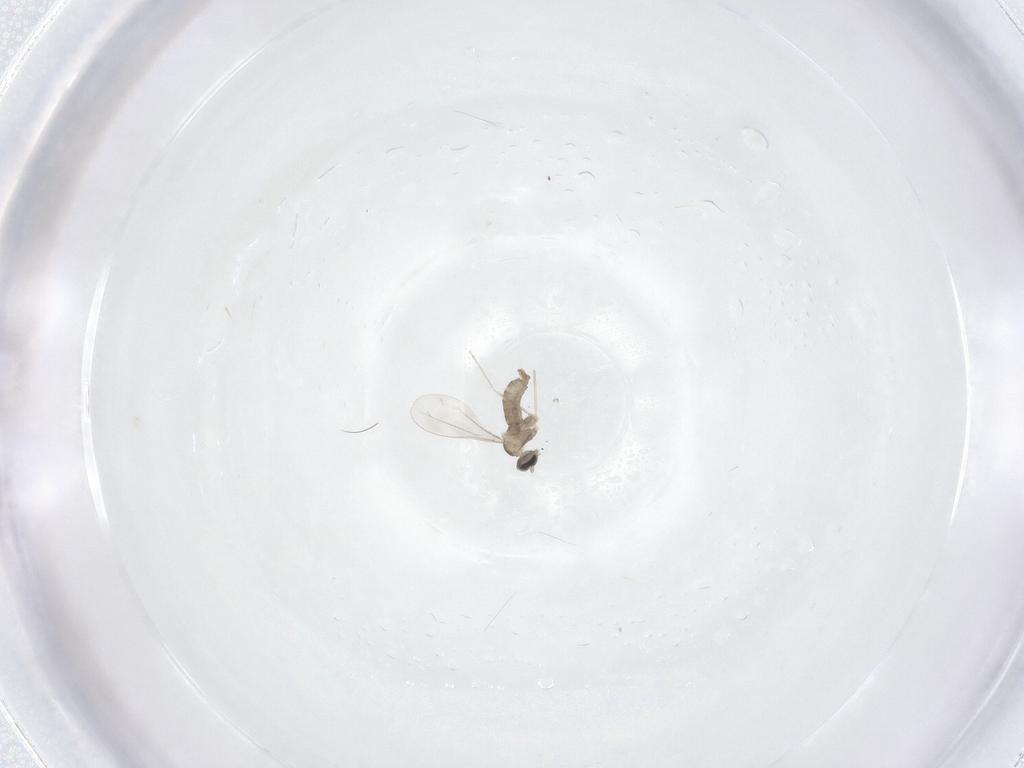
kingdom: Animalia
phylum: Arthropoda
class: Insecta
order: Diptera
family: Cecidomyiidae
